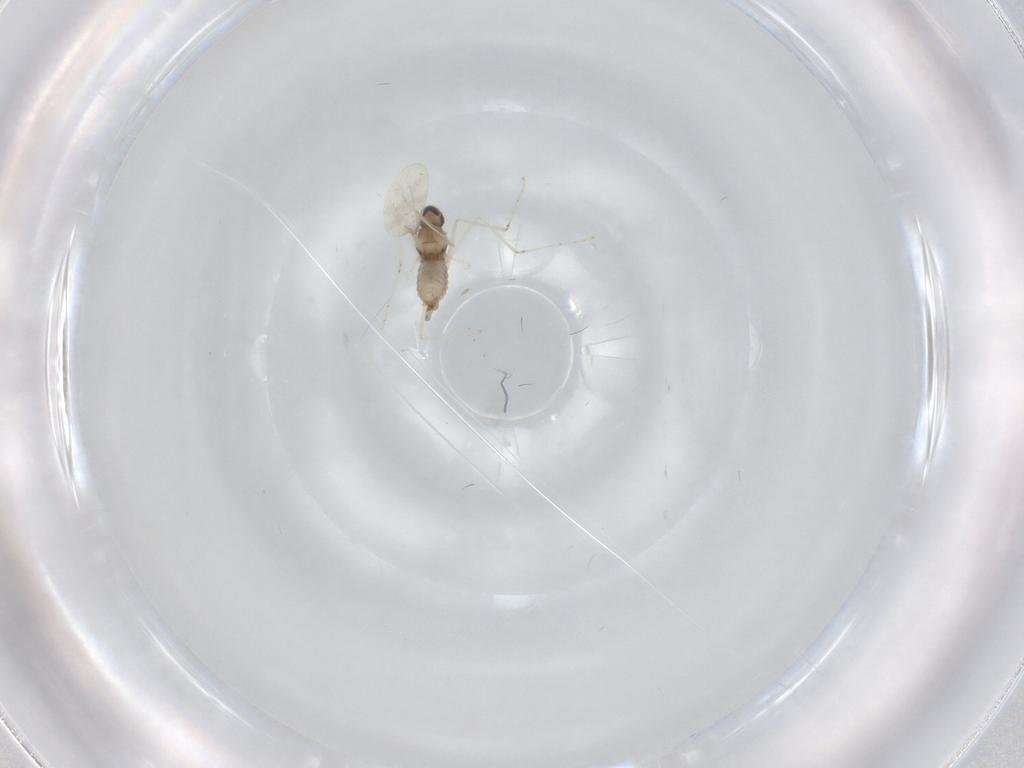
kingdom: Animalia
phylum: Arthropoda
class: Insecta
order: Diptera
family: Cecidomyiidae
